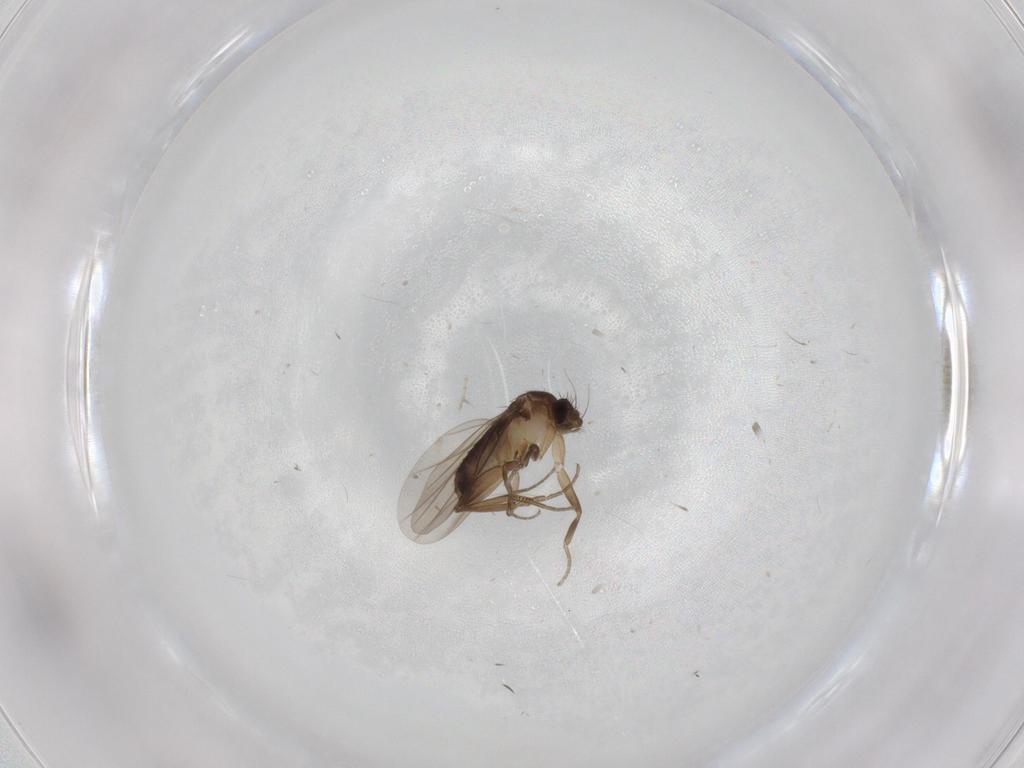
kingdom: Animalia
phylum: Arthropoda
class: Insecta
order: Diptera
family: Phoridae
